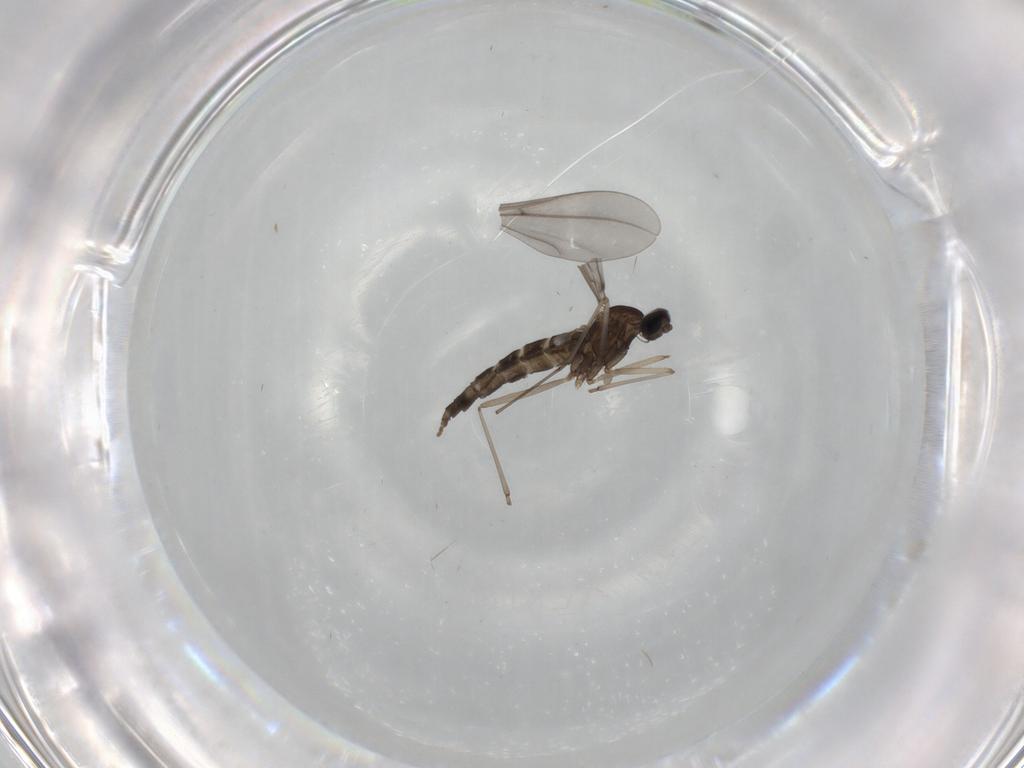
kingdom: Animalia
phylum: Arthropoda
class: Insecta
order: Diptera
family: Cecidomyiidae
